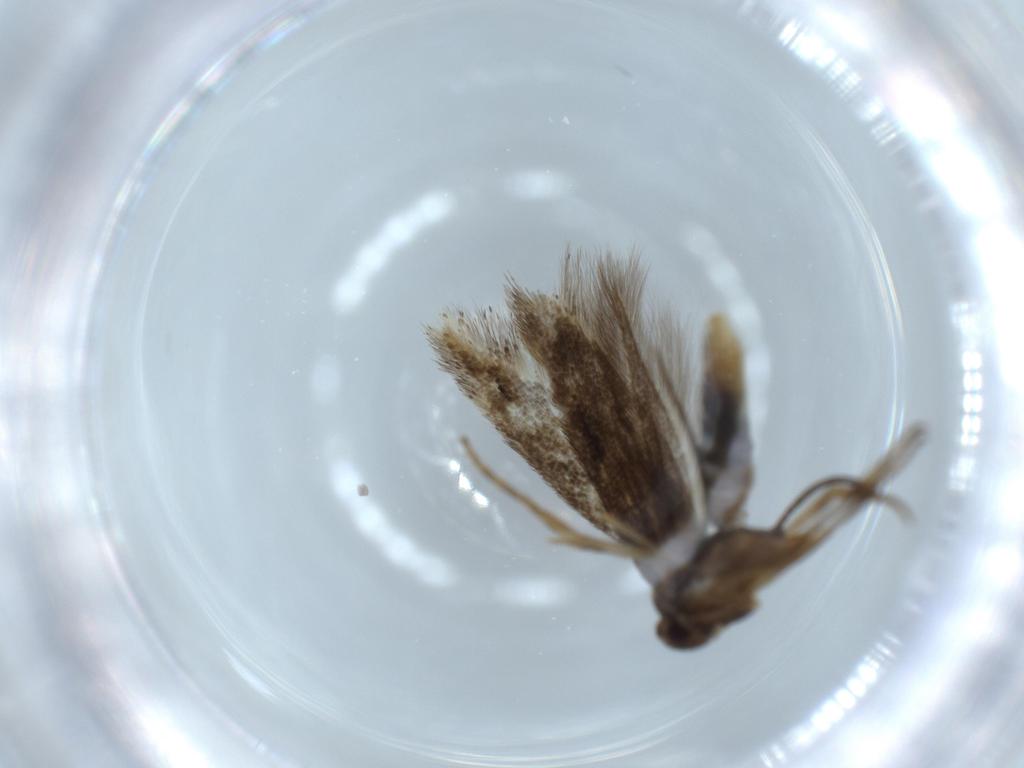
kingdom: Animalia
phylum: Arthropoda
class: Insecta
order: Lepidoptera
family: Elachistidae
